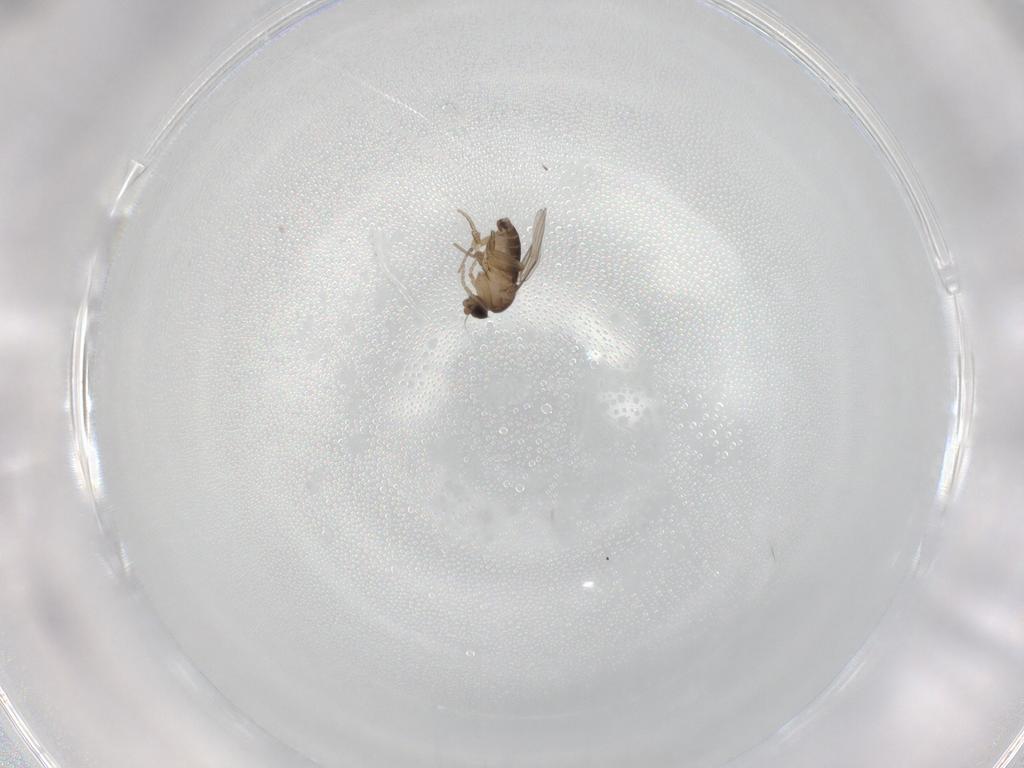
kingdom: Animalia
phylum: Arthropoda
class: Insecta
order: Diptera
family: Phoridae
